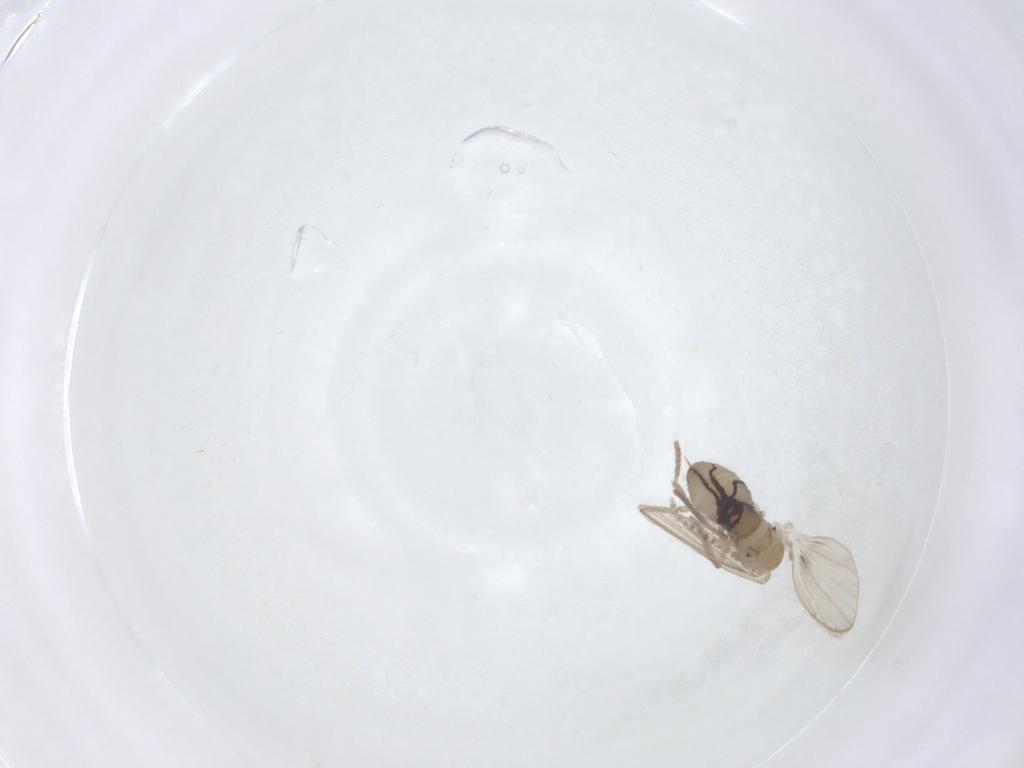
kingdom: Animalia
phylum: Arthropoda
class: Insecta
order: Diptera
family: Psychodidae
